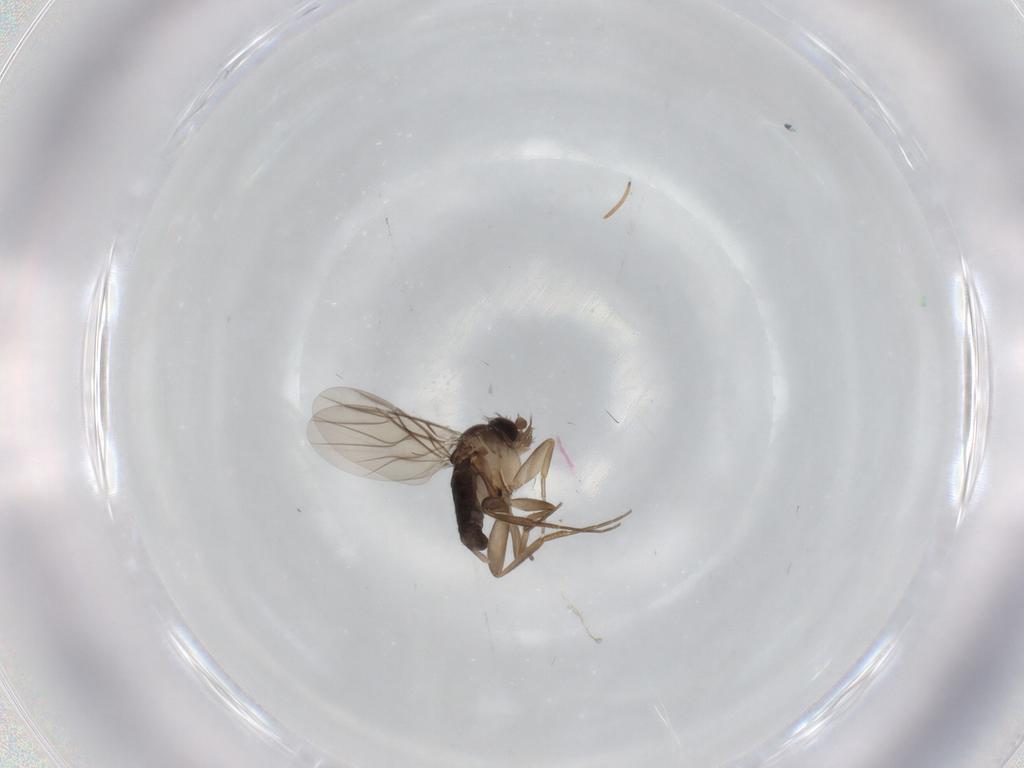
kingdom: Animalia
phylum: Arthropoda
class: Insecta
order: Diptera
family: Phoridae
